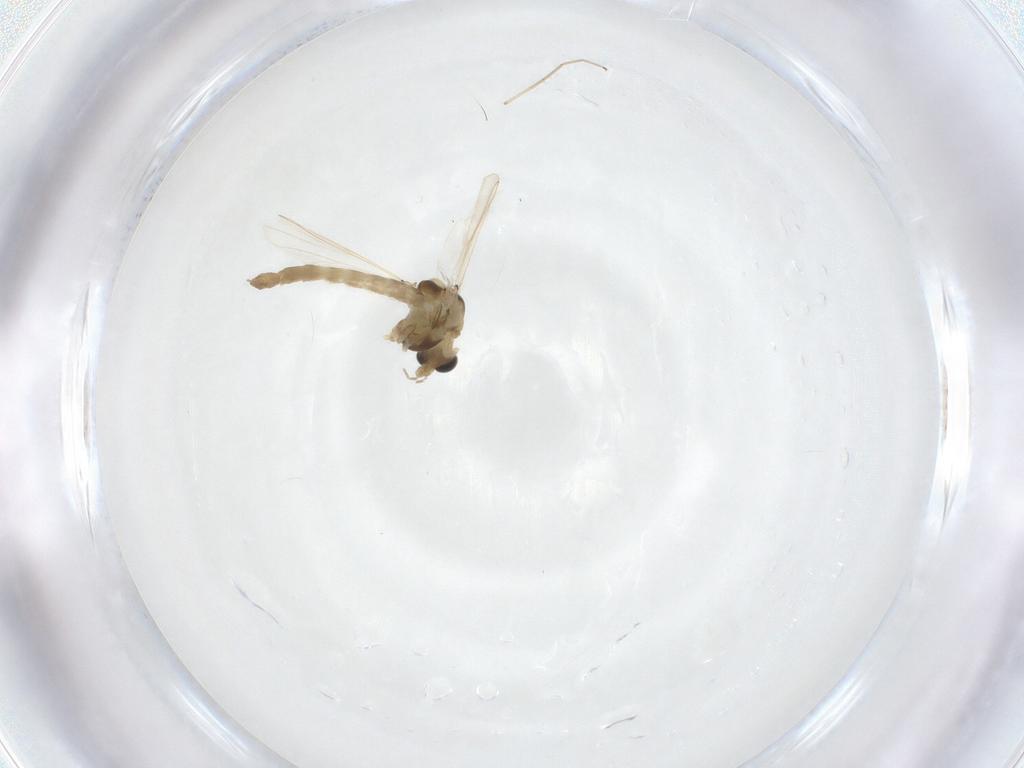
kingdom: Animalia
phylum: Arthropoda
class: Insecta
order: Diptera
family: Chironomidae
